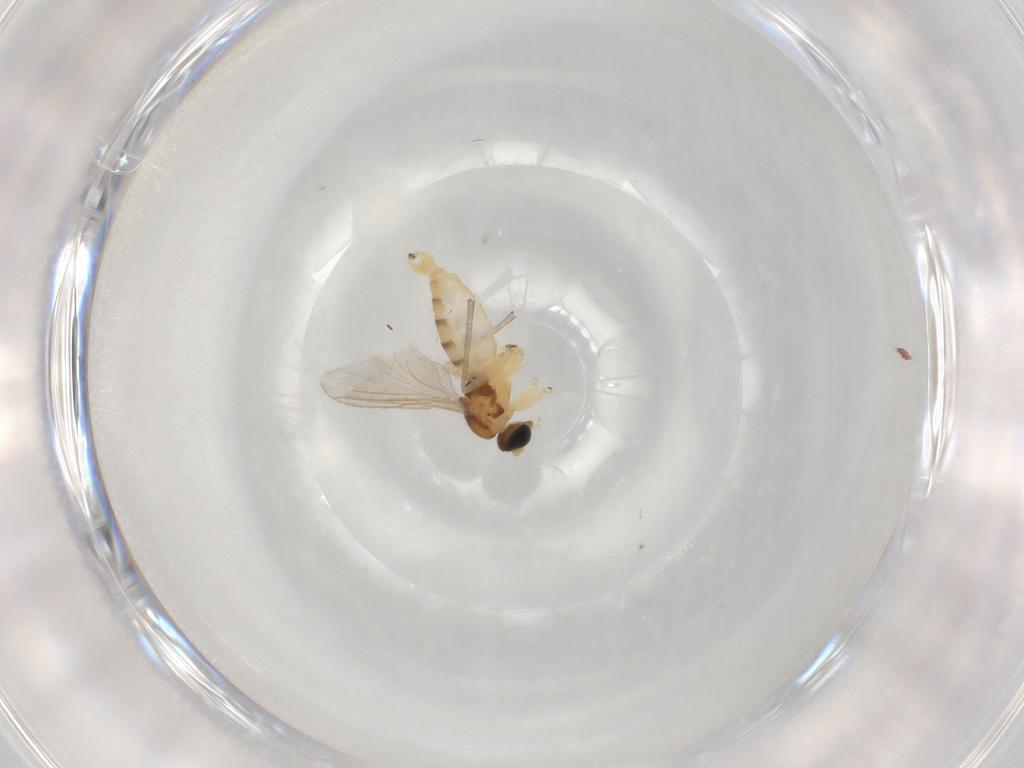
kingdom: Animalia
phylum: Arthropoda
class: Insecta
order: Diptera
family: Sciaridae
